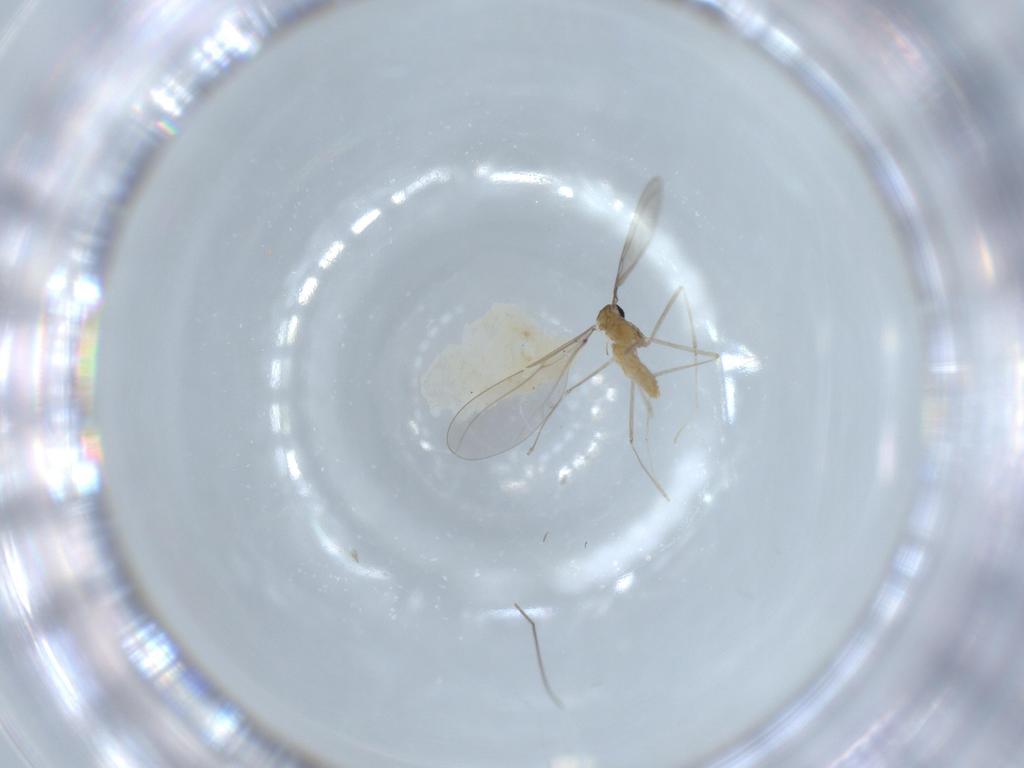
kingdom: Animalia
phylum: Arthropoda
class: Insecta
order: Diptera
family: Cecidomyiidae
